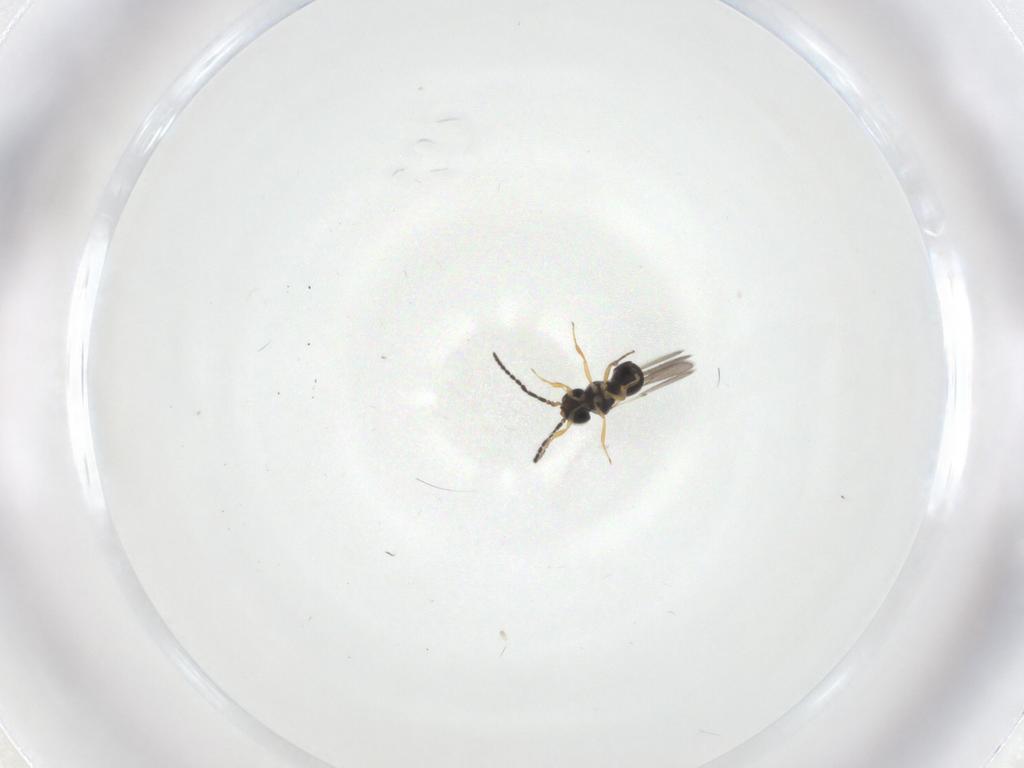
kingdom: Animalia
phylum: Arthropoda
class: Insecta
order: Hymenoptera
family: Scelionidae
